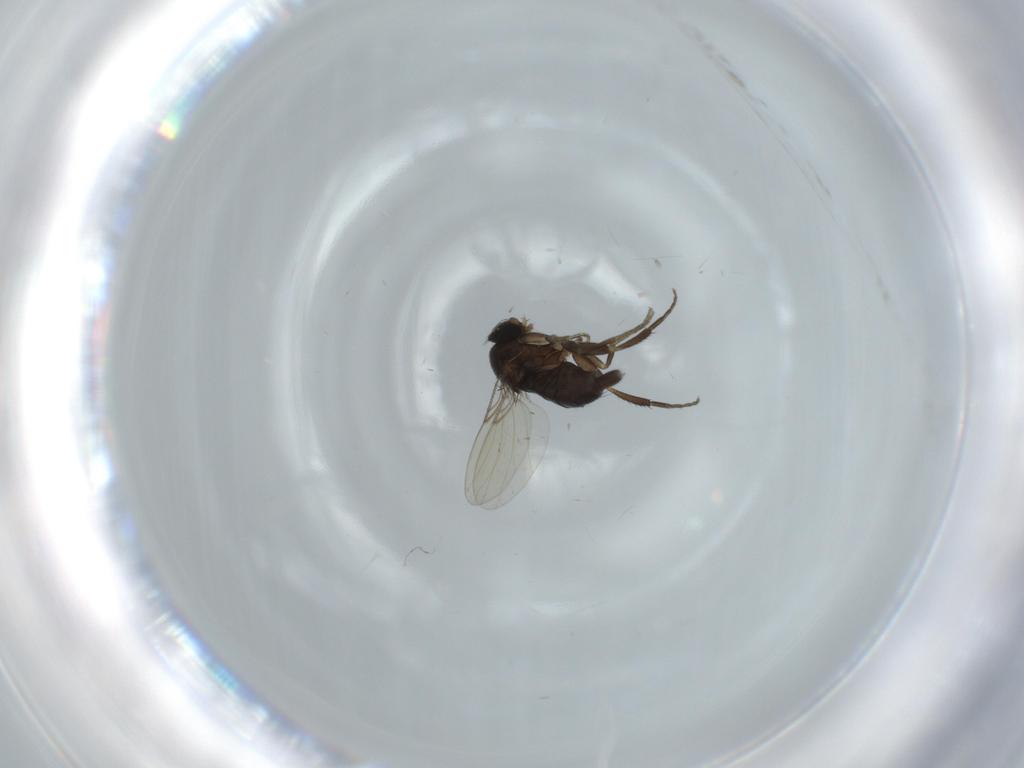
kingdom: Animalia
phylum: Arthropoda
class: Insecta
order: Diptera
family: Phoridae
